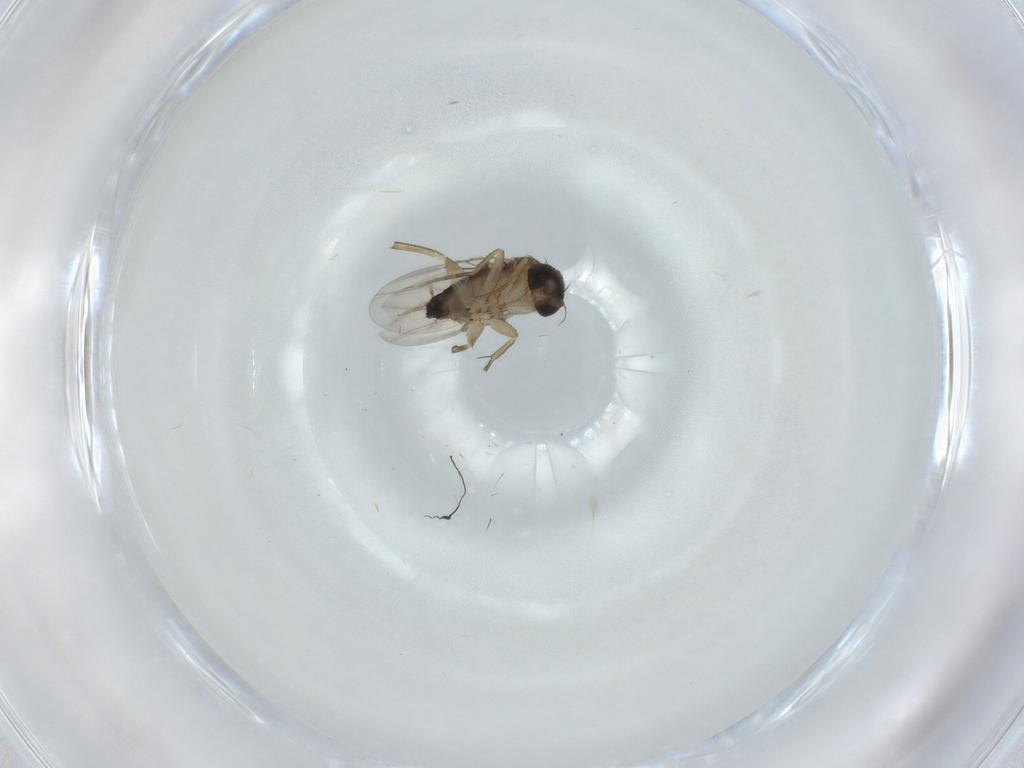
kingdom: Animalia
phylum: Arthropoda
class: Insecta
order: Diptera
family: Phoridae
